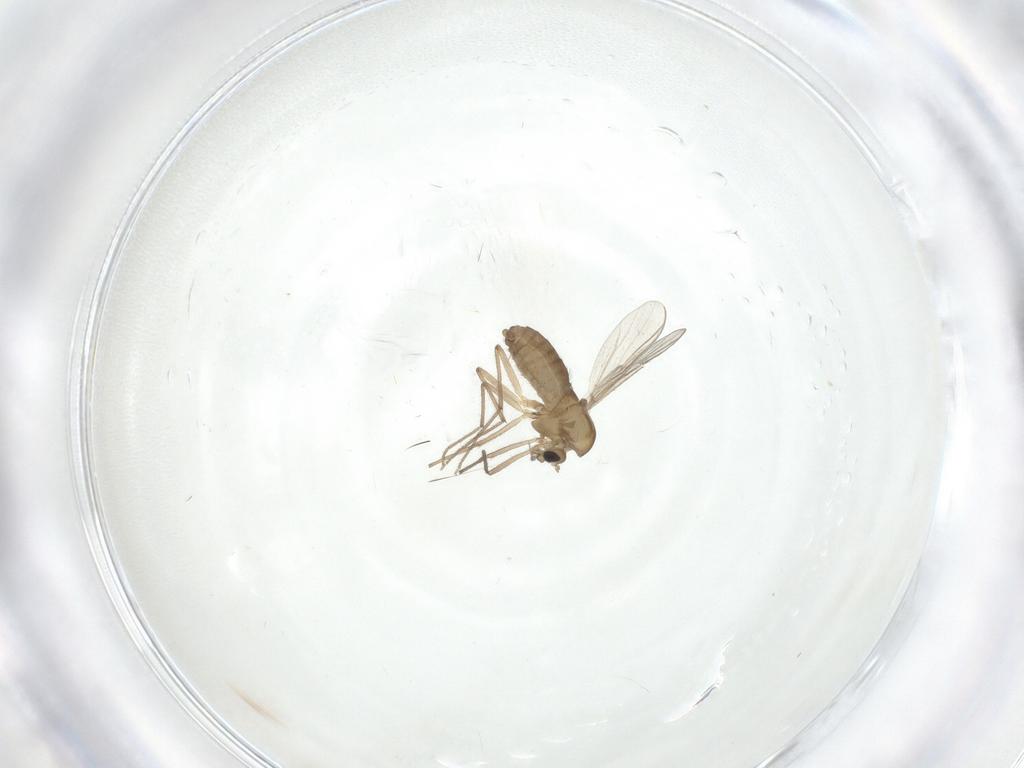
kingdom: Animalia
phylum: Arthropoda
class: Insecta
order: Diptera
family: Chironomidae
